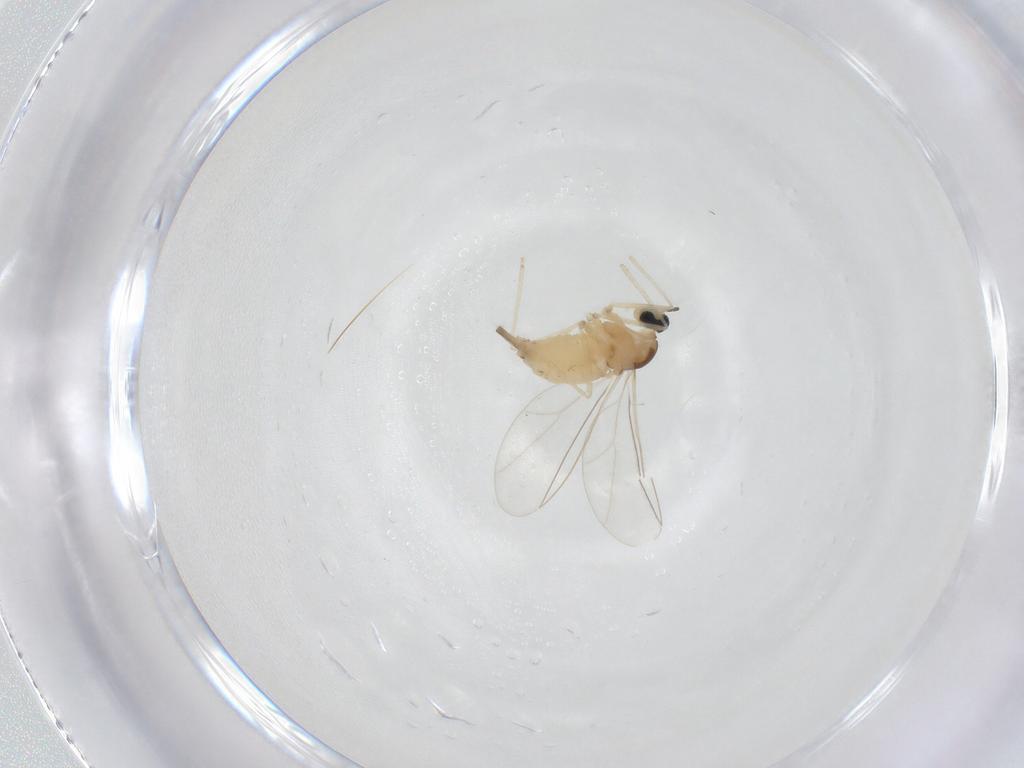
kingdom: Animalia
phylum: Arthropoda
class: Insecta
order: Diptera
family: Cecidomyiidae
